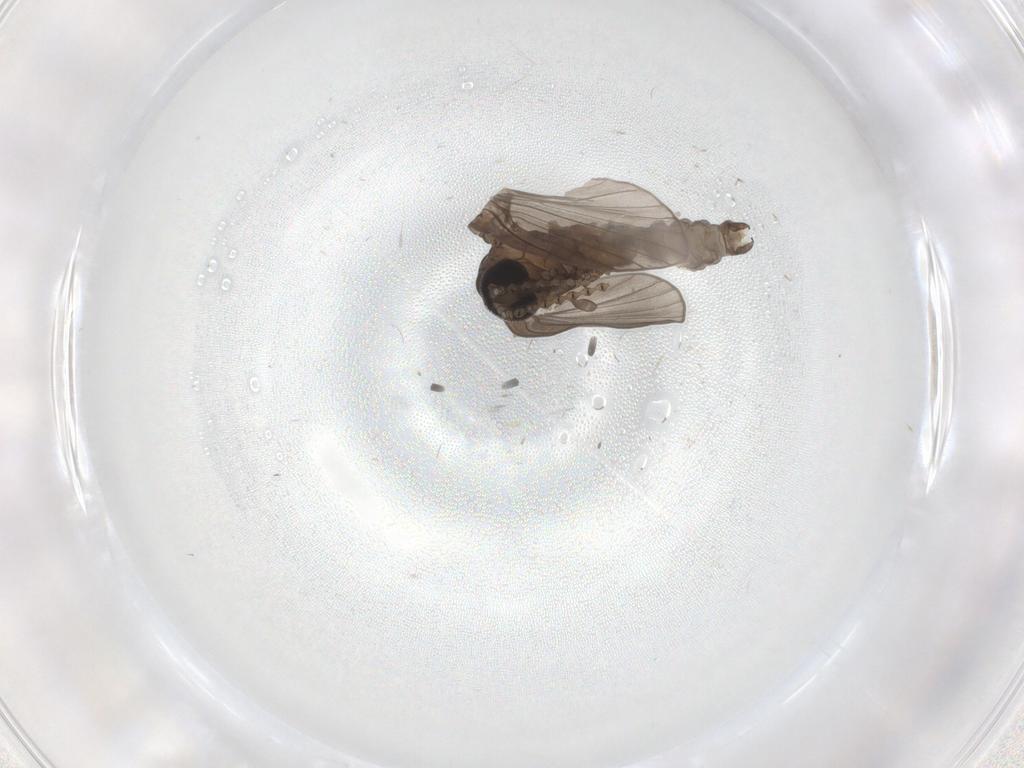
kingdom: Animalia
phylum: Arthropoda
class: Insecta
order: Diptera
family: Cecidomyiidae
